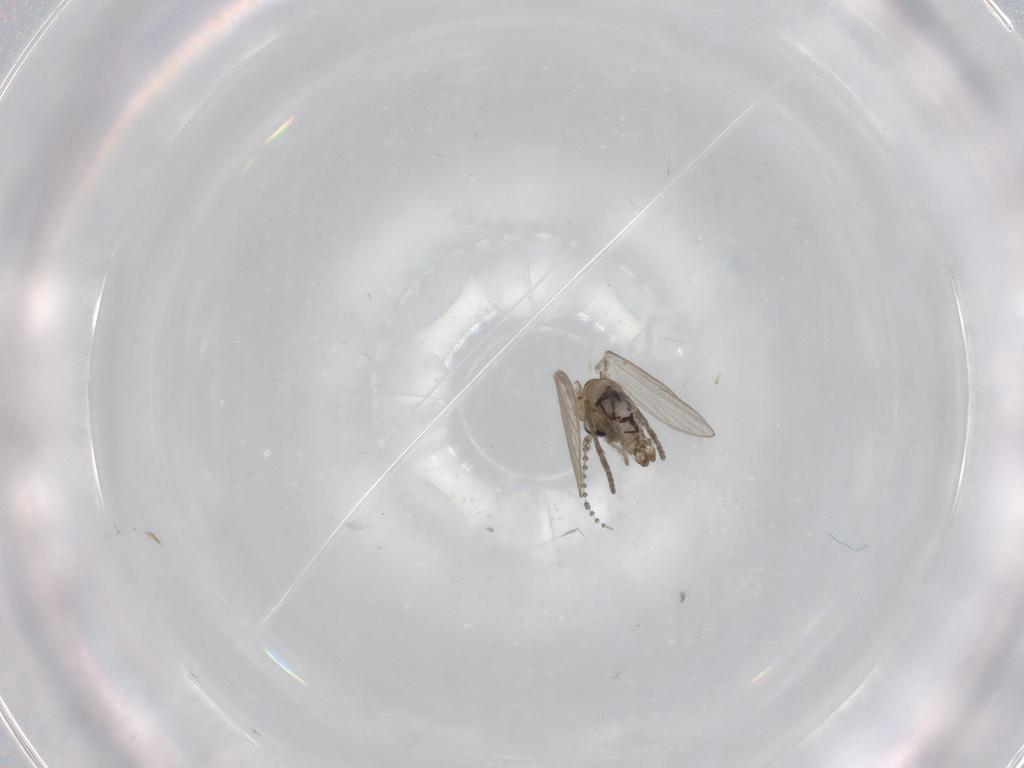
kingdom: Animalia
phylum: Arthropoda
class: Insecta
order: Diptera
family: Psychodidae
